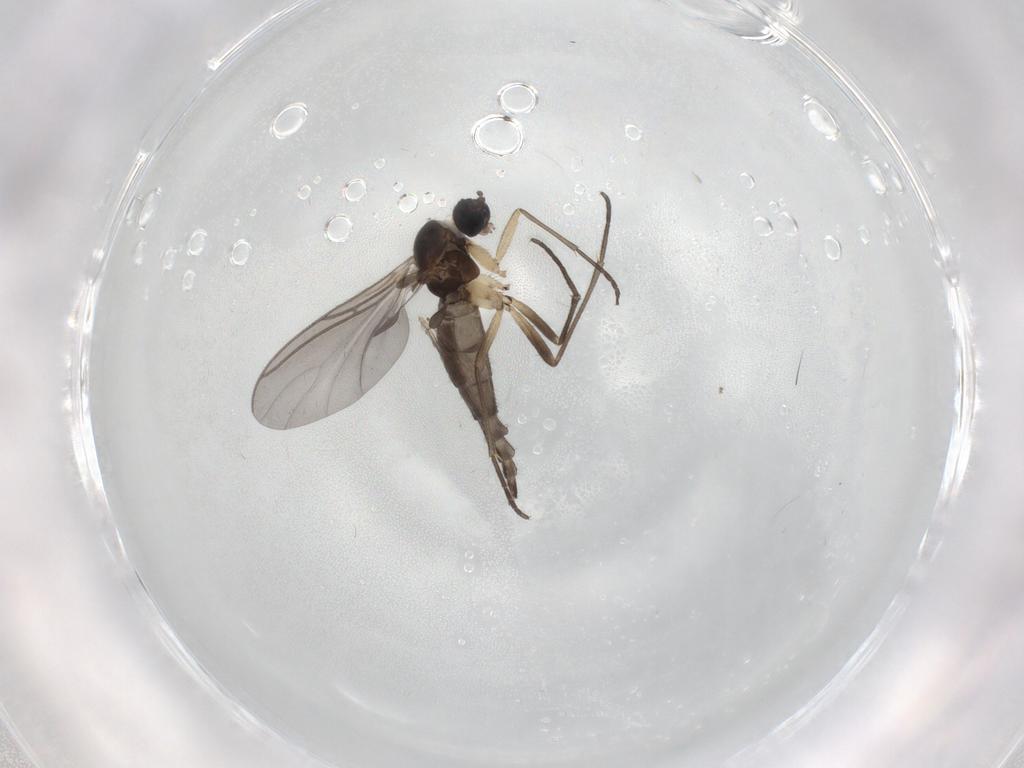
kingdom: Animalia
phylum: Arthropoda
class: Insecta
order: Diptera
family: Sciaridae
